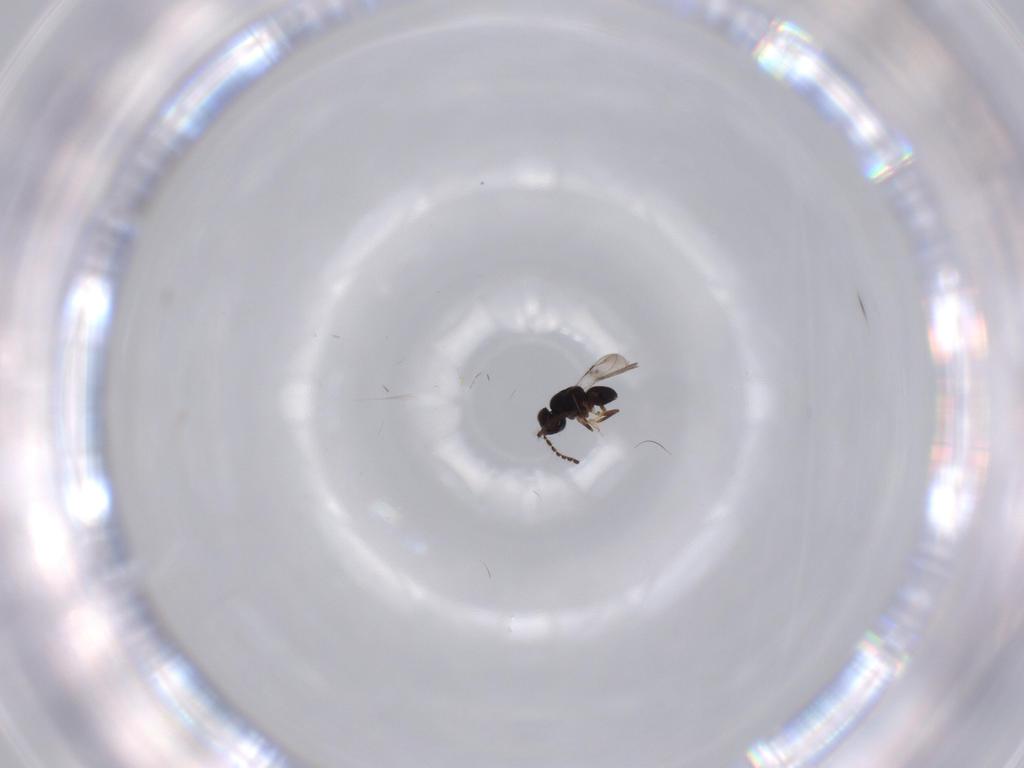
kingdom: Animalia
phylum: Arthropoda
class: Insecta
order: Hymenoptera
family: Ceraphronidae
